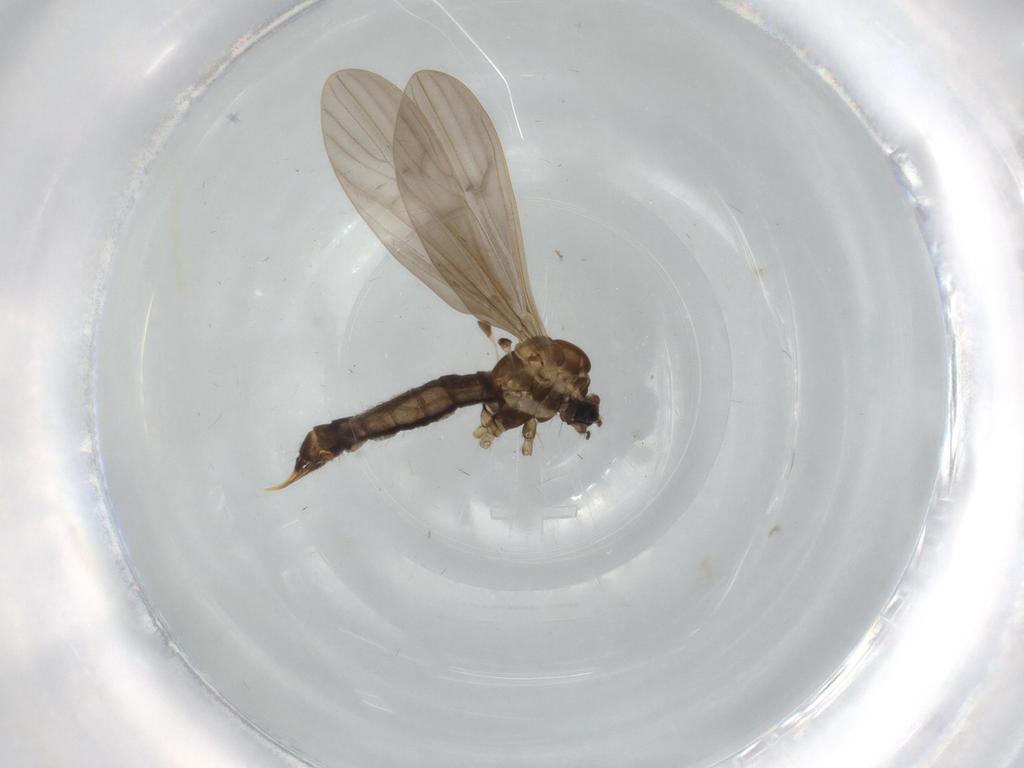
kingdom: Animalia
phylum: Arthropoda
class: Insecta
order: Diptera
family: Limoniidae
